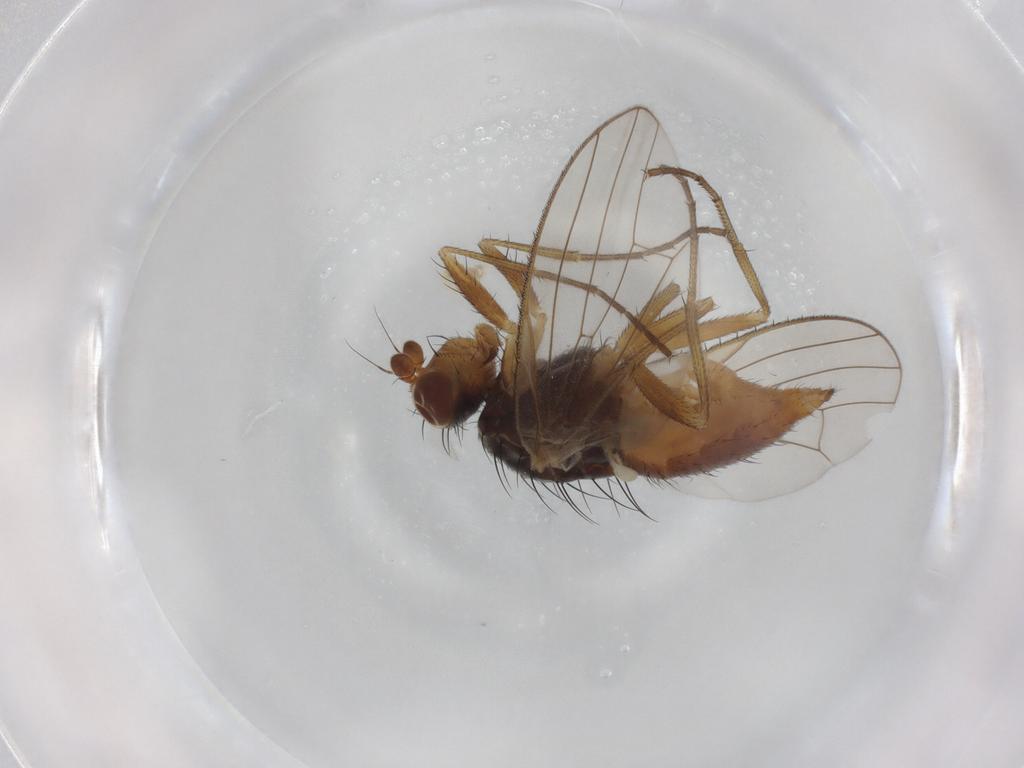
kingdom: Animalia
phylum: Arthropoda
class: Insecta
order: Diptera
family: Heleomyzidae
